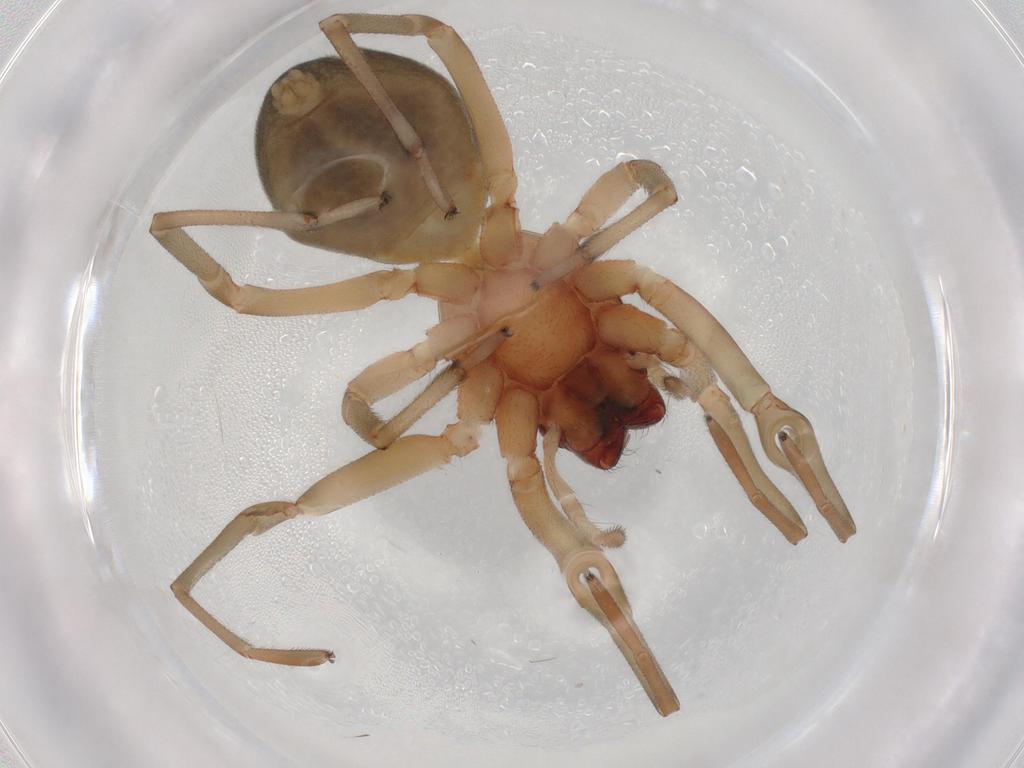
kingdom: Animalia
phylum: Arthropoda
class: Arachnida
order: Araneae
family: Trachelidae
